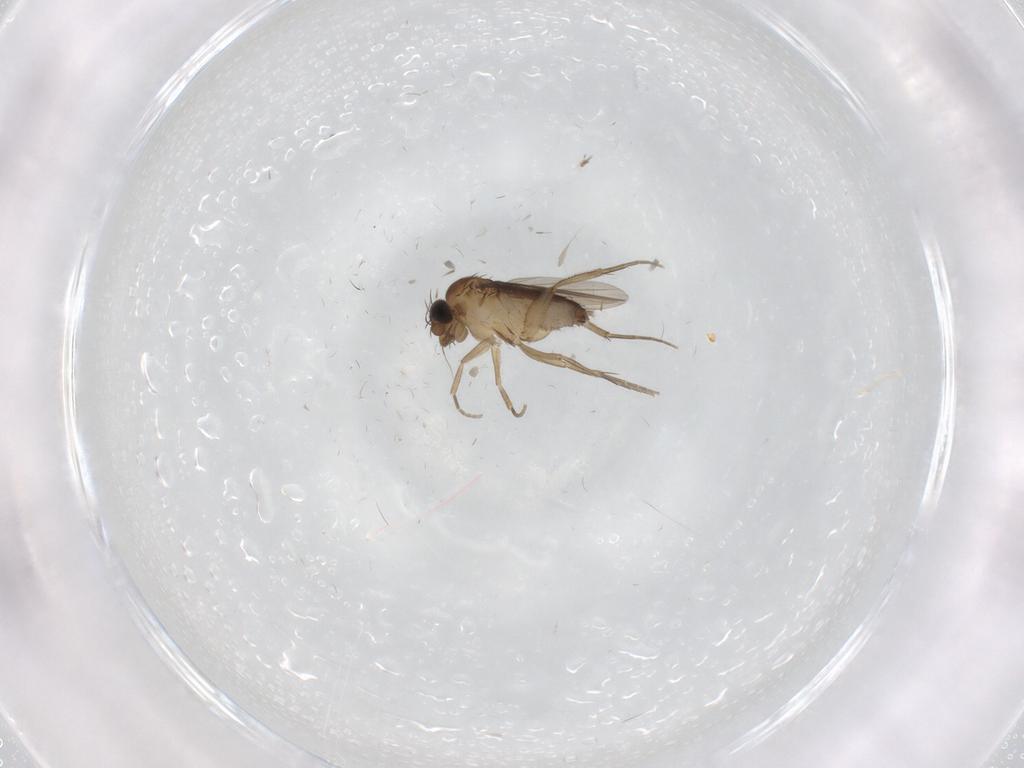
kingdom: Animalia
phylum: Arthropoda
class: Insecta
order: Diptera
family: Phoridae
